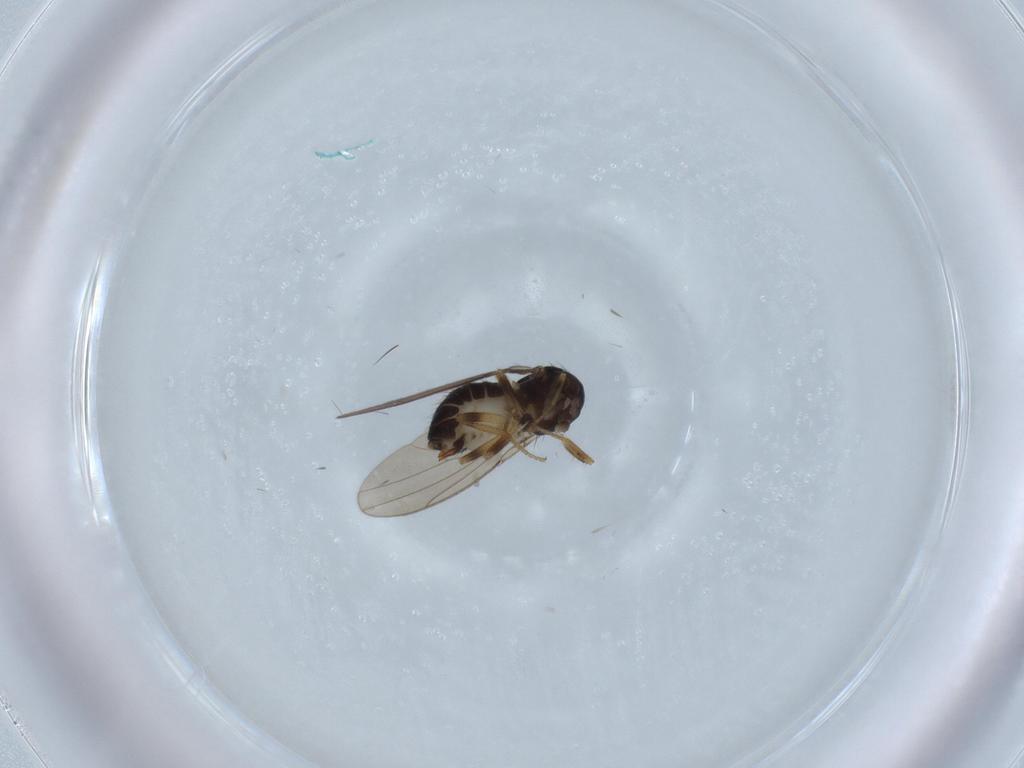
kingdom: Animalia
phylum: Arthropoda
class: Insecta
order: Diptera
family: Drosophilidae
